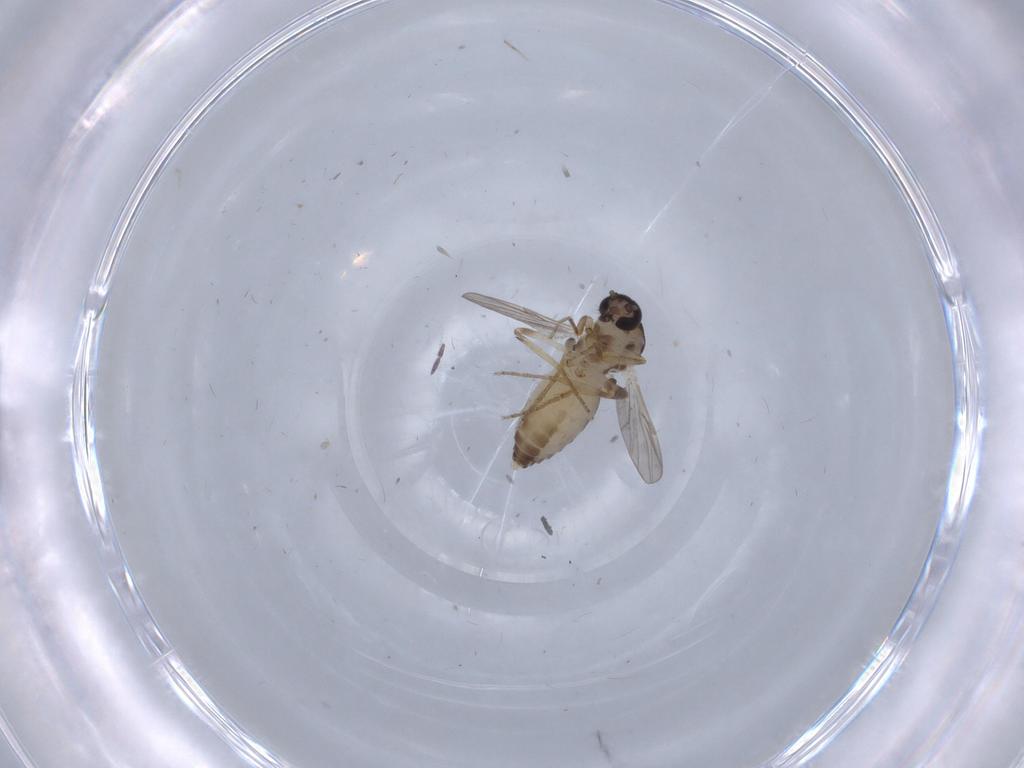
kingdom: Animalia
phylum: Arthropoda
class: Insecta
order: Diptera
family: Ceratopogonidae
